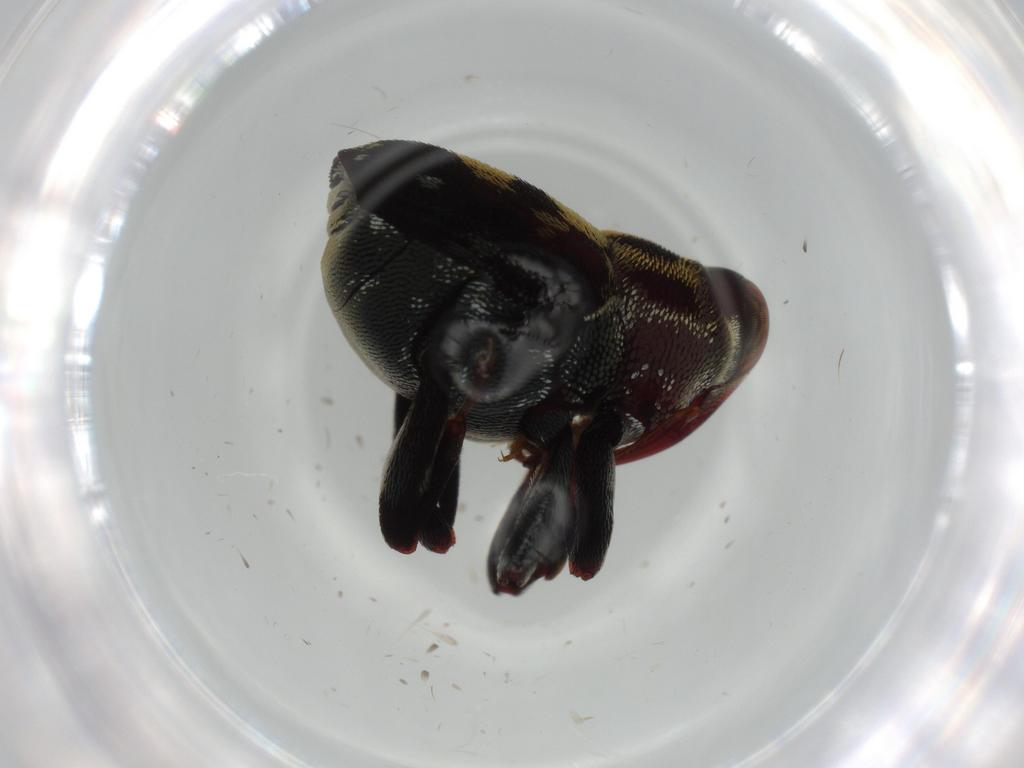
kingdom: Animalia
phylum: Arthropoda
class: Insecta
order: Coleoptera
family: Curculionidae
